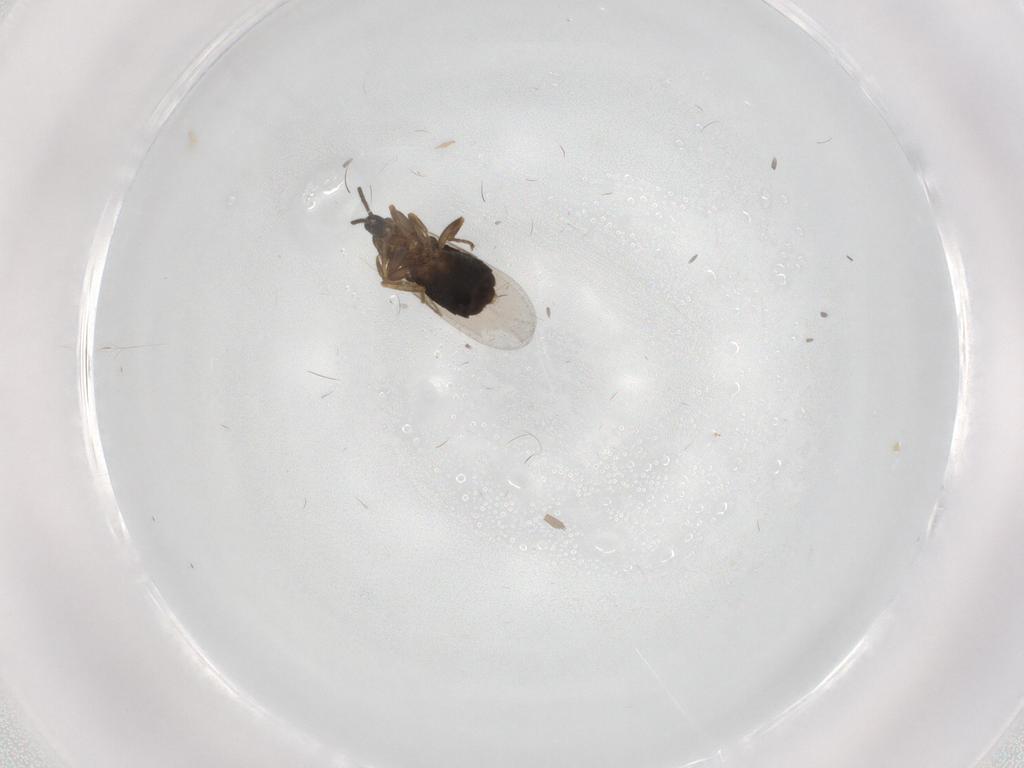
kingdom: Animalia
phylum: Arthropoda
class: Insecta
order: Diptera
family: Scatopsidae
